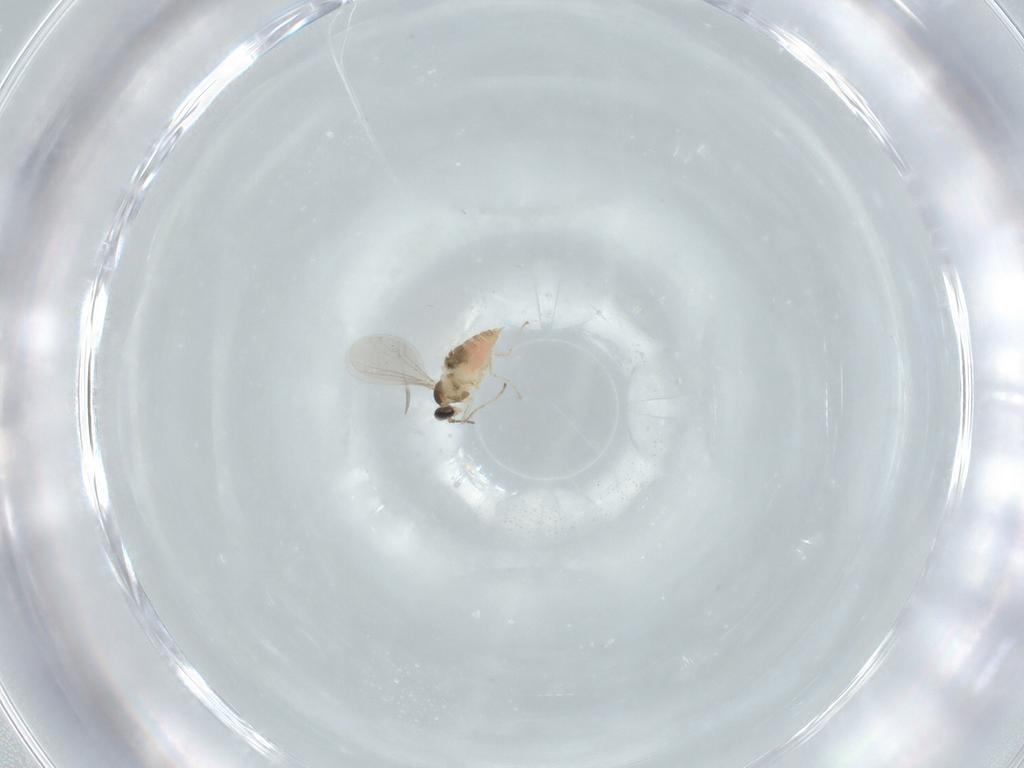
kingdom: Animalia
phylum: Arthropoda
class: Insecta
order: Diptera
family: Cecidomyiidae
